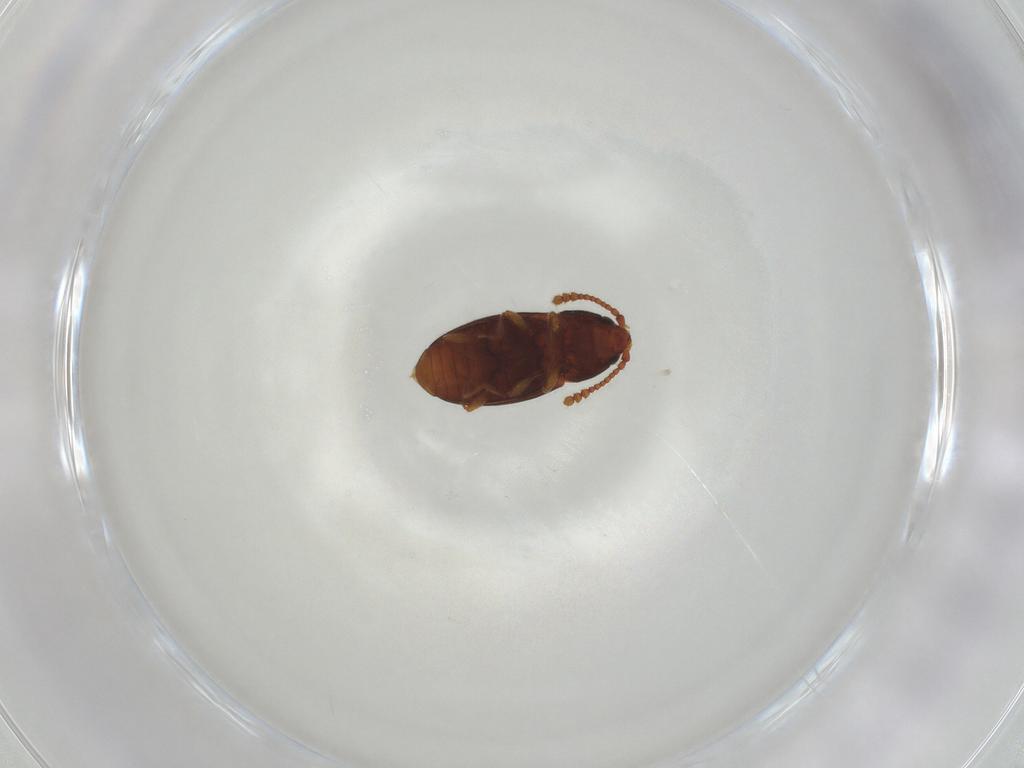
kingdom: Animalia
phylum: Arthropoda
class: Insecta
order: Coleoptera
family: Cryptophagidae
